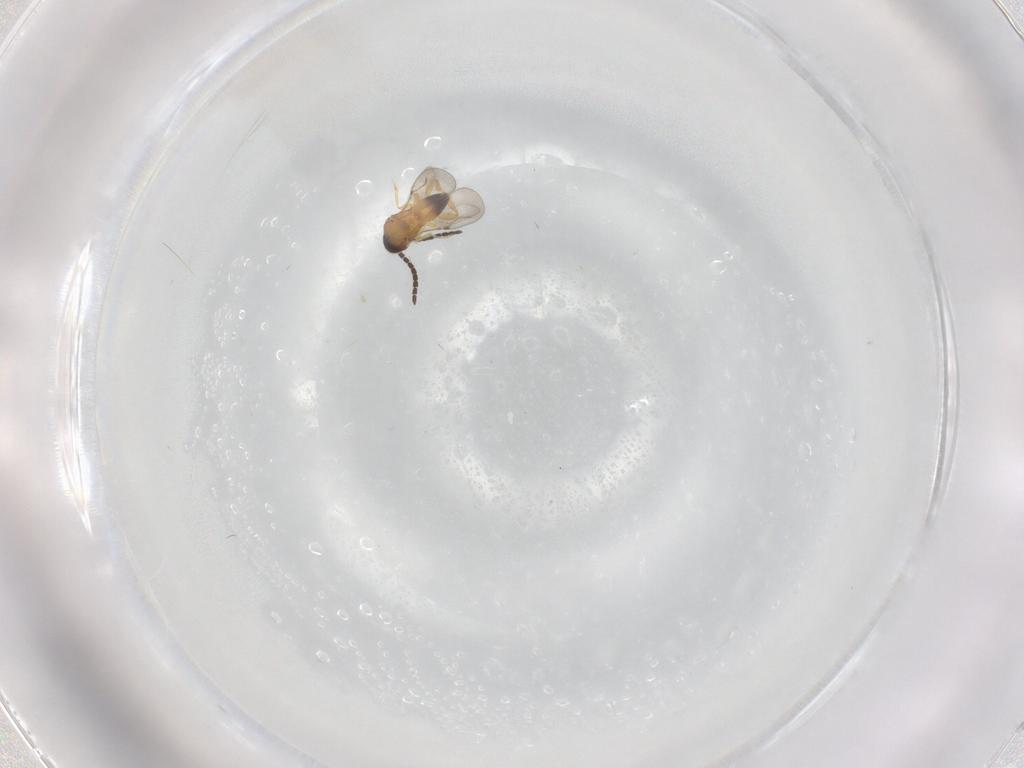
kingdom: Animalia
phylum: Arthropoda
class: Insecta
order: Hymenoptera
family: Ceraphronidae
